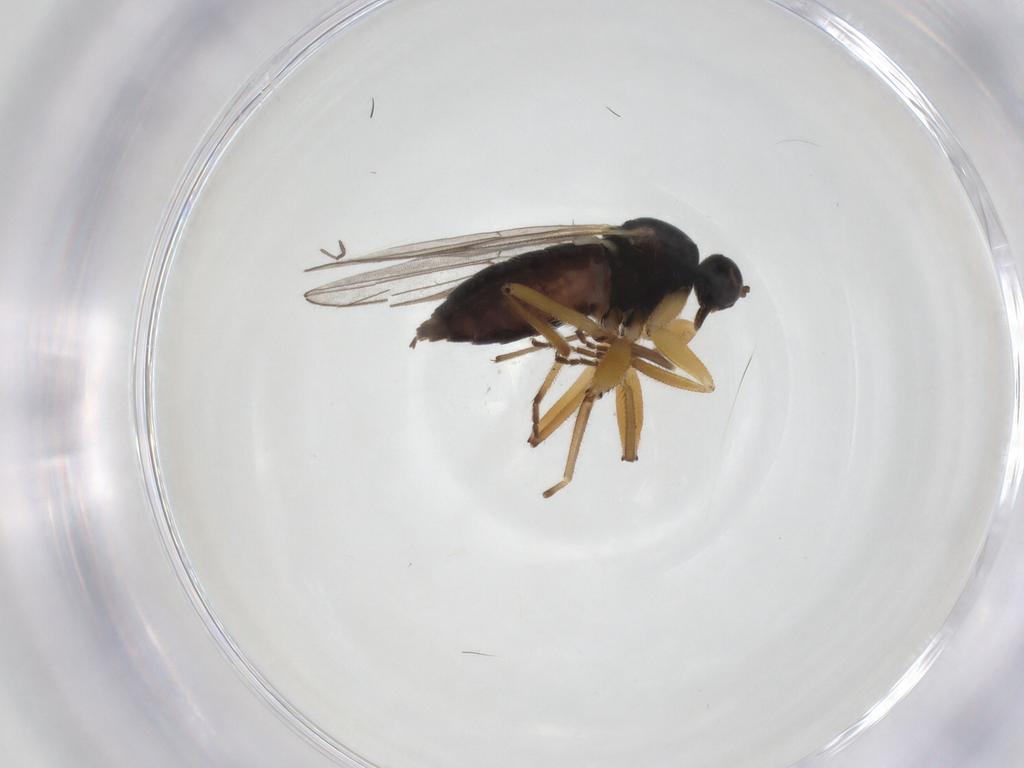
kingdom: Animalia
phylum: Arthropoda
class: Insecta
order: Diptera
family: Hybotidae
